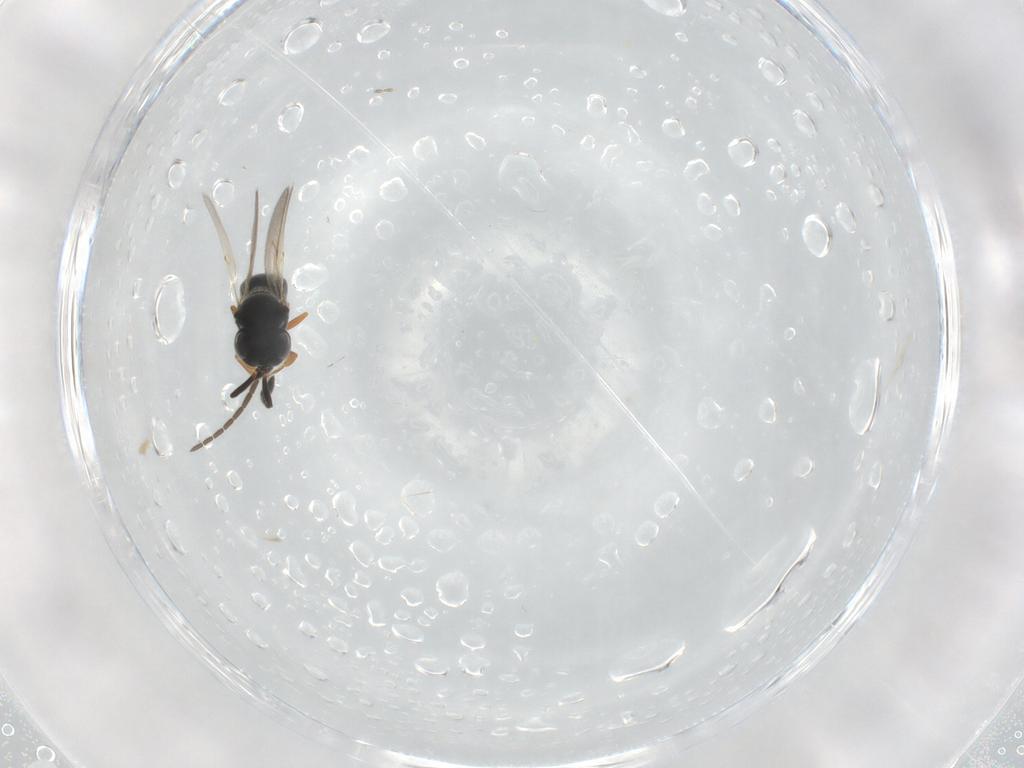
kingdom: Animalia
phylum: Arthropoda
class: Insecta
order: Hymenoptera
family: Scelionidae
